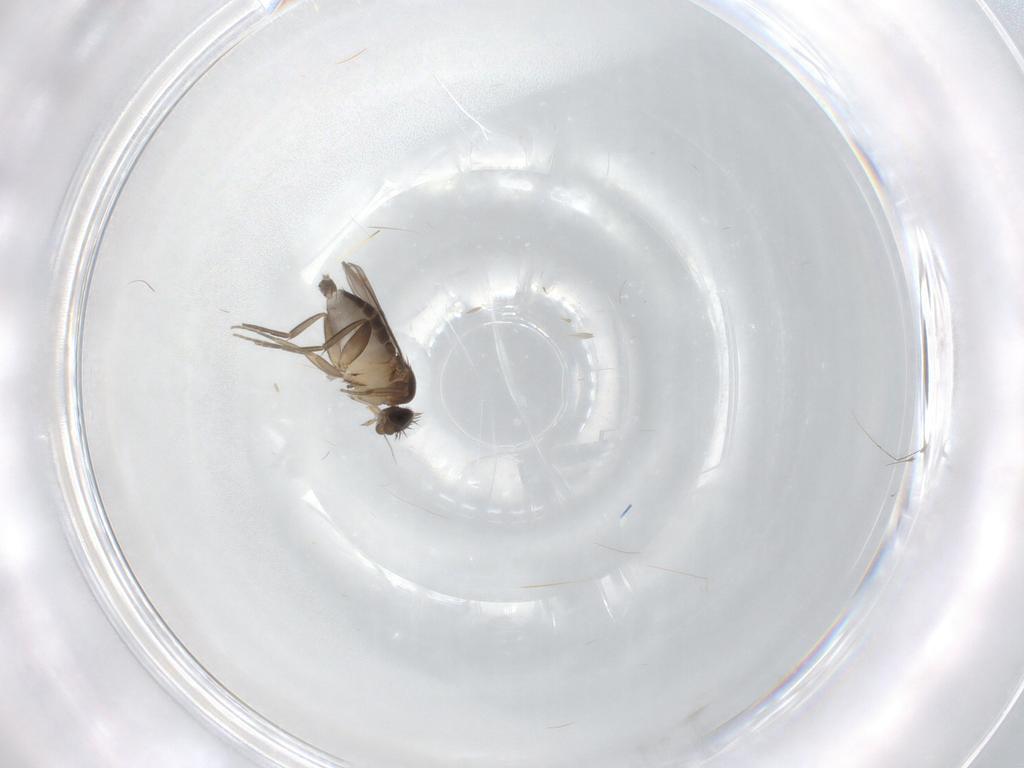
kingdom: Animalia
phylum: Arthropoda
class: Insecta
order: Diptera
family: Phoridae
